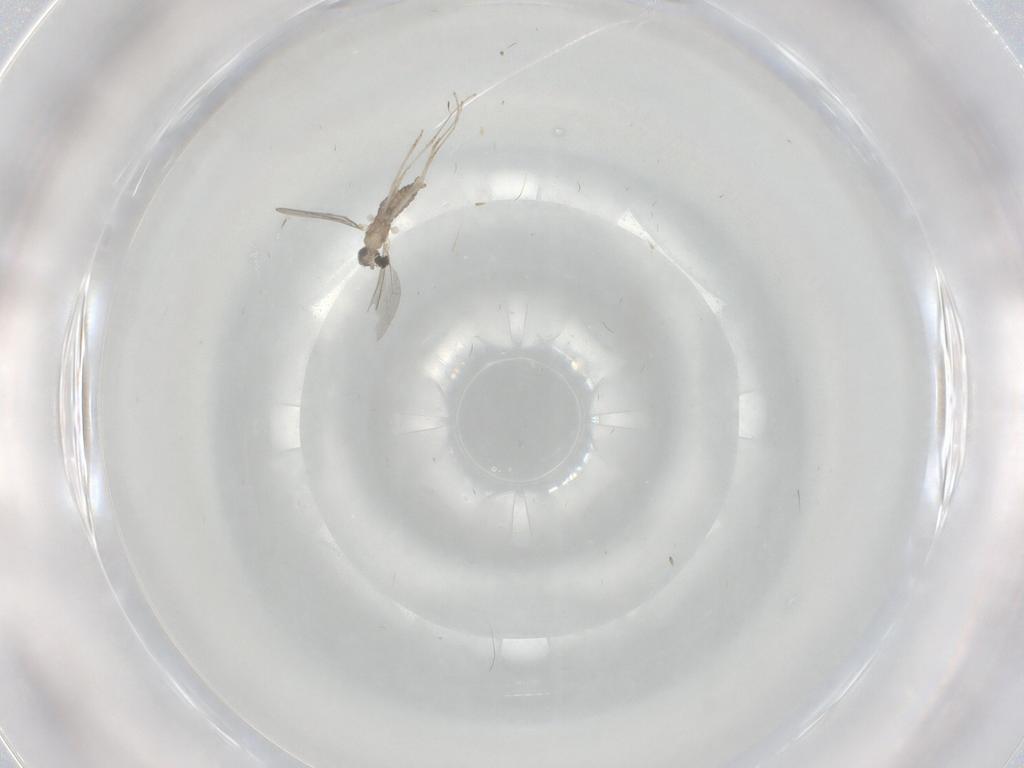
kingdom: Animalia
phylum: Arthropoda
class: Insecta
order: Diptera
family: Cecidomyiidae
